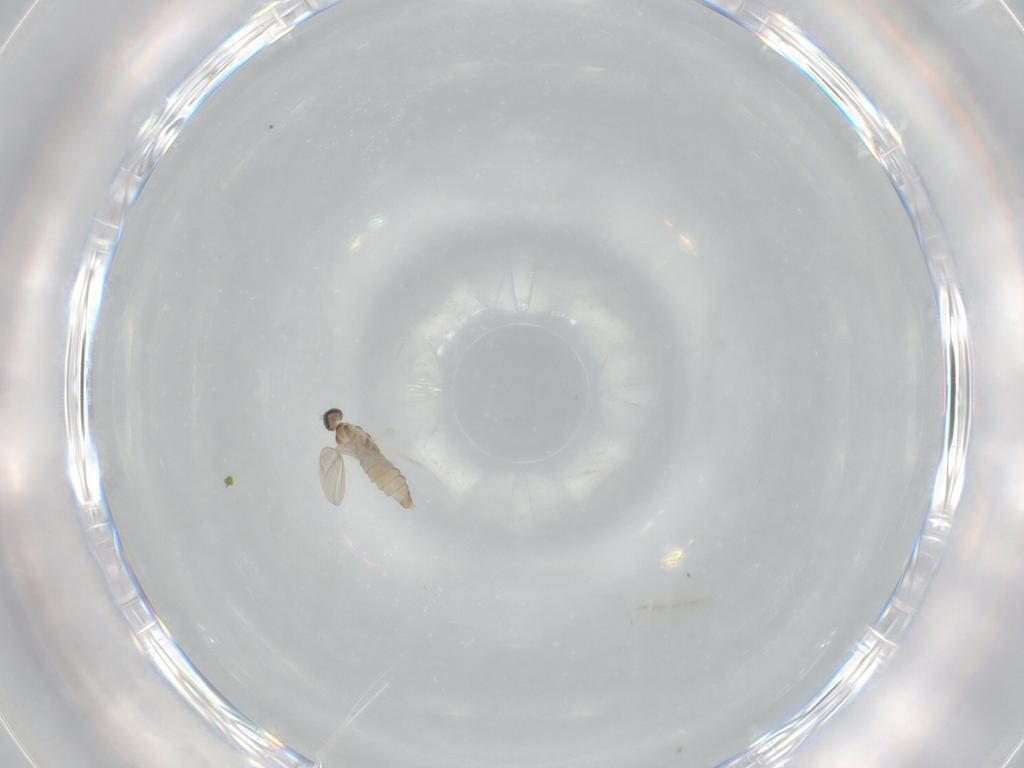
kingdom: Animalia
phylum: Arthropoda
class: Insecta
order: Diptera
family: Cecidomyiidae
